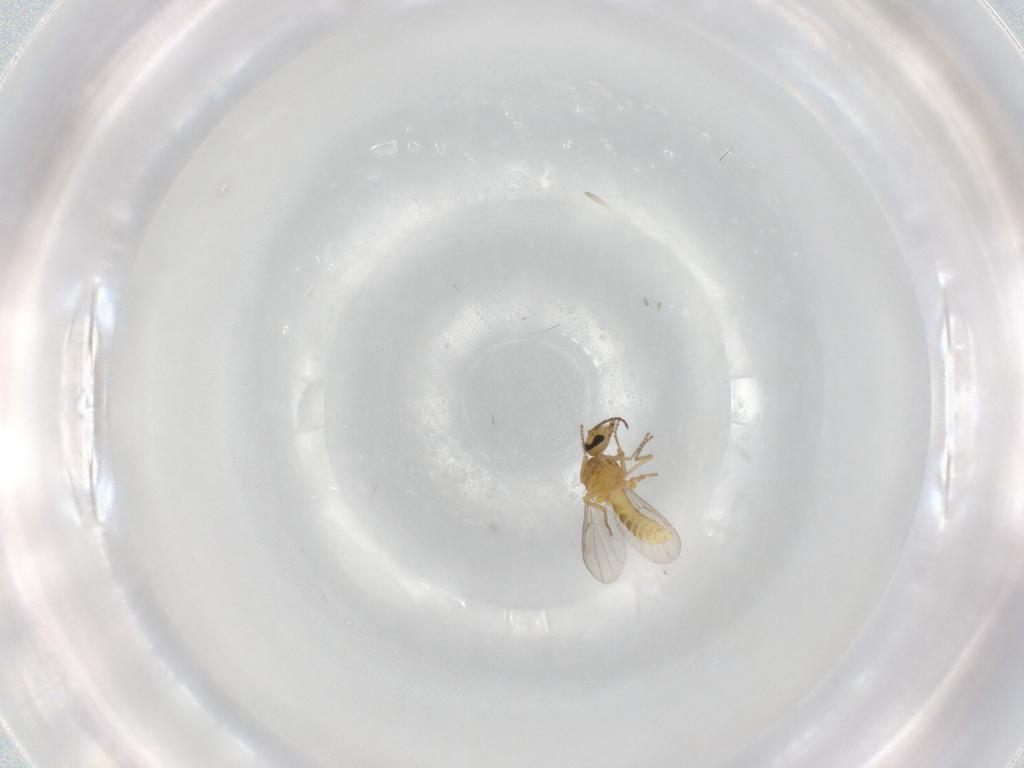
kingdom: Animalia
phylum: Arthropoda
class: Insecta
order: Diptera
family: Cecidomyiidae
